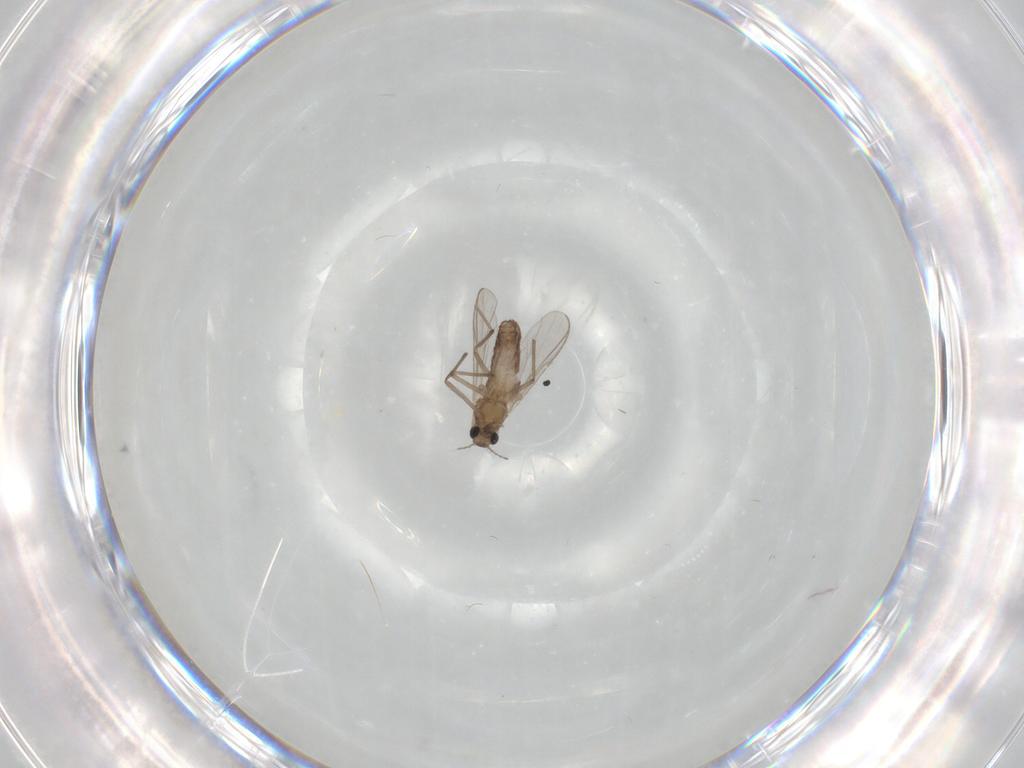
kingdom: Animalia
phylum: Arthropoda
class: Insecta
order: Diptera
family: Chironomidae
